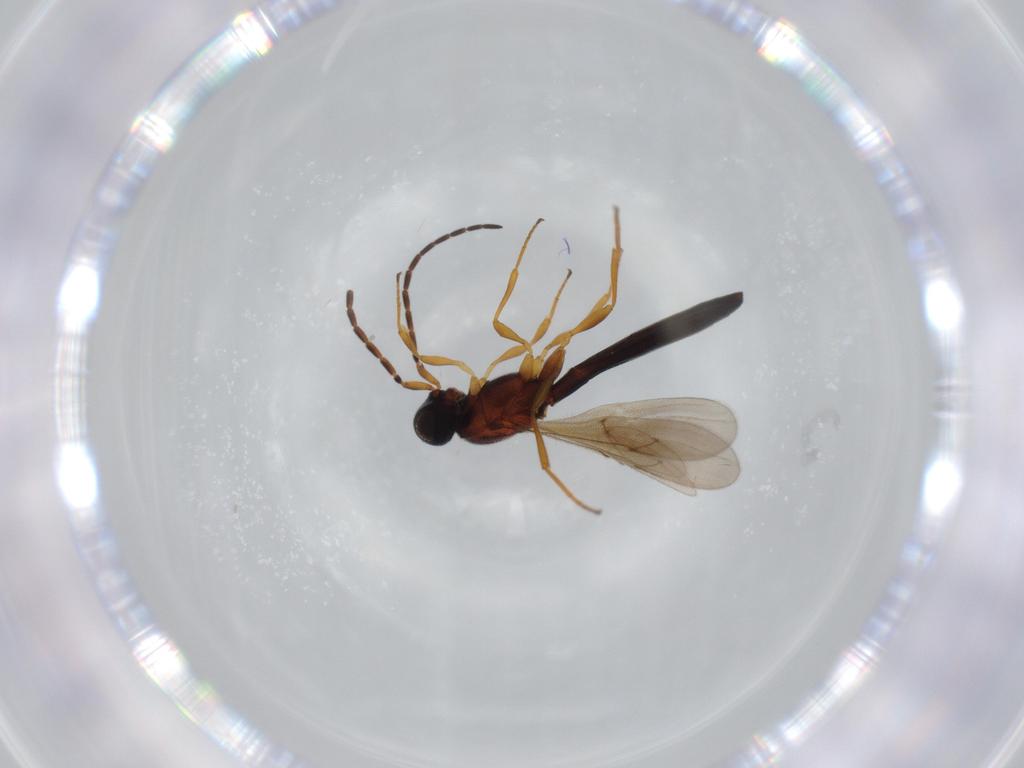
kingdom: Animalia
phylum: Arthropoda
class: Insecta
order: Hymenoptera
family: Scelionidae
